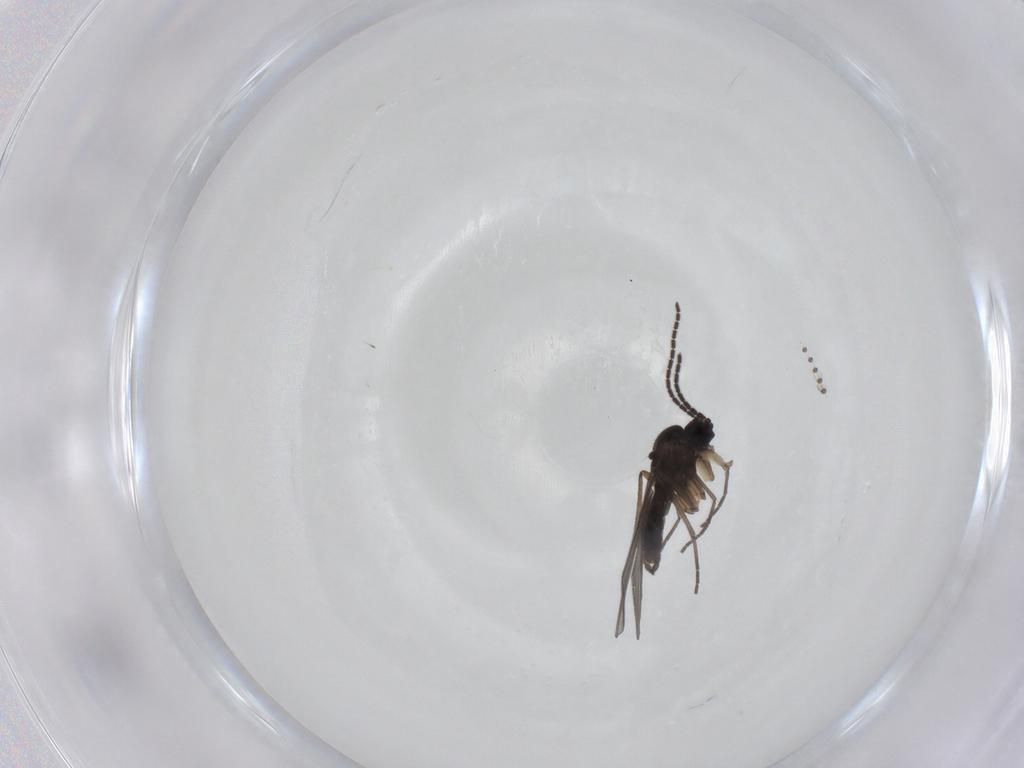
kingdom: Animalia
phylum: Arthropoda
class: Insecta
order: Diptera
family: Sciaridae
